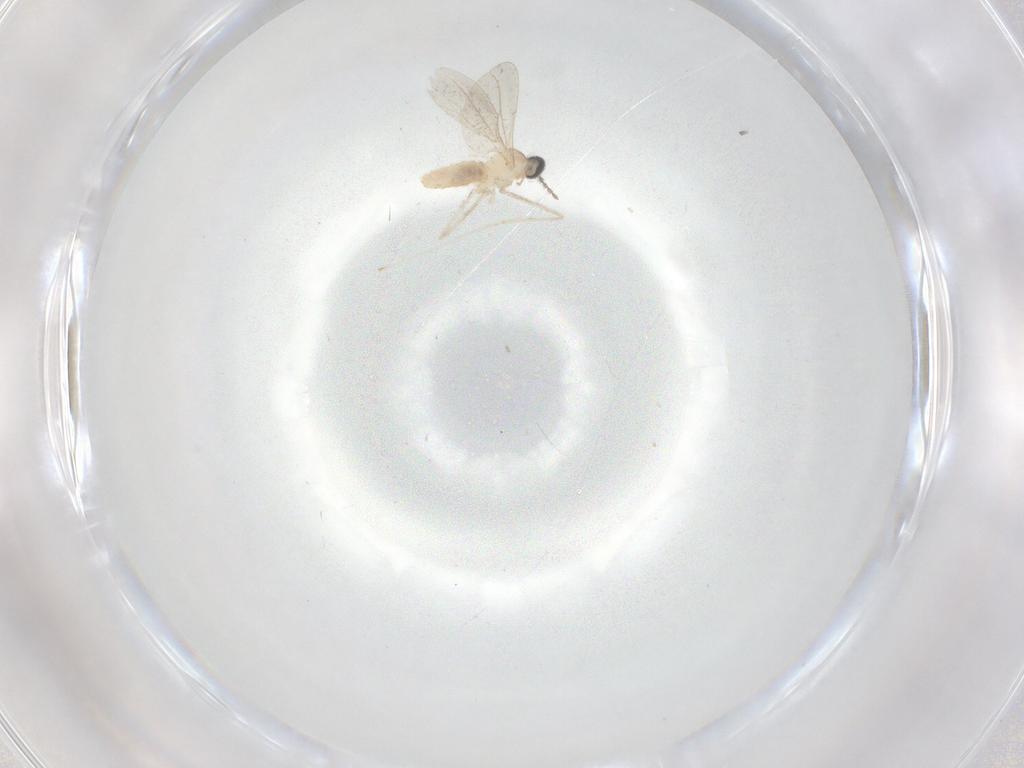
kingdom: Animalia
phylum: Arthropoda
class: Insecta
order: Diptera
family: Cecidomyiidae
